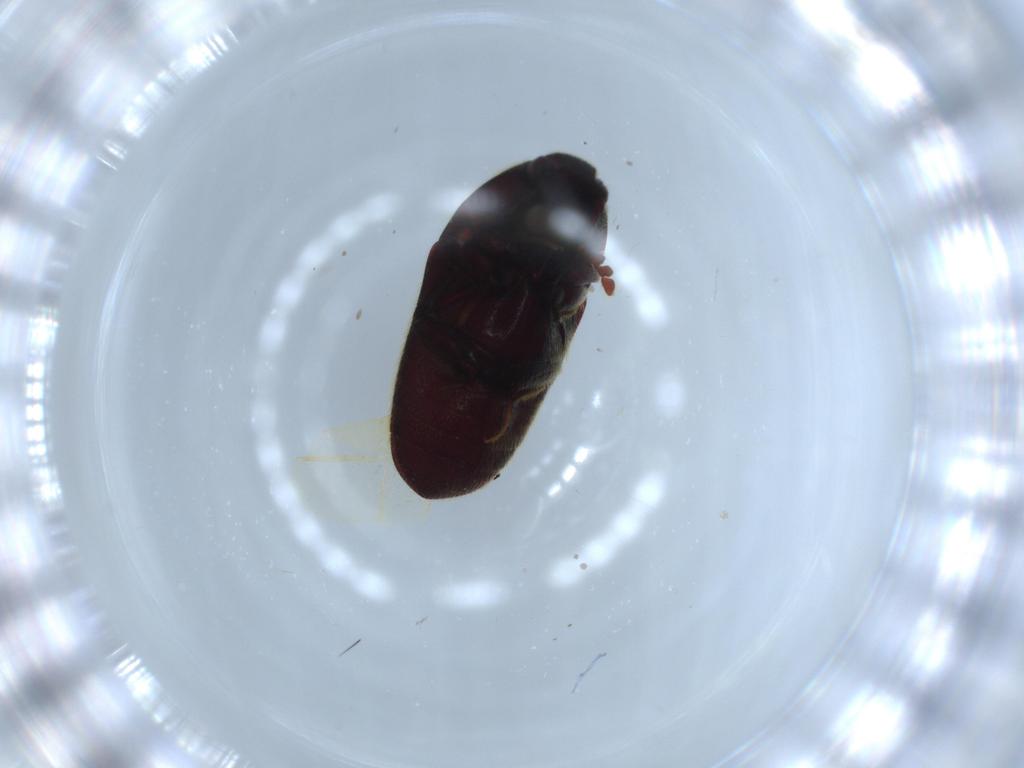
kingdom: Animalia
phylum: Arthropoda
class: Insecta
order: Coleoptera
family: Throscidae
